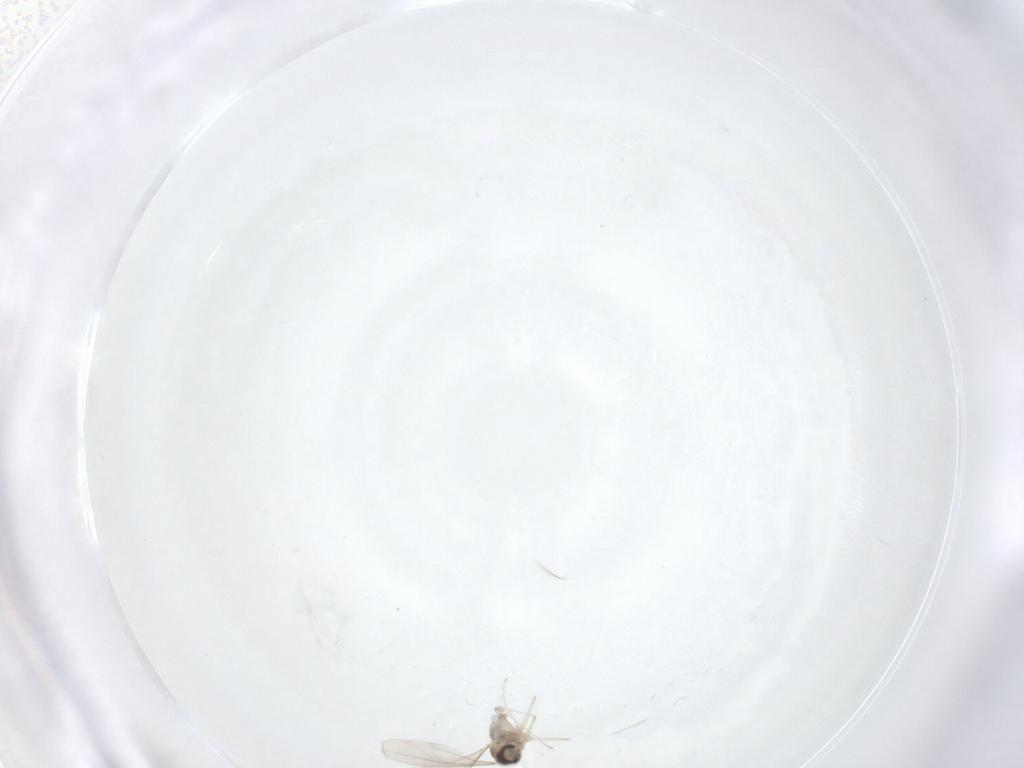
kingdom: Animalia
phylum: Arthropoda
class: Insecta
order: Diptera
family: Cecidomyiidae
